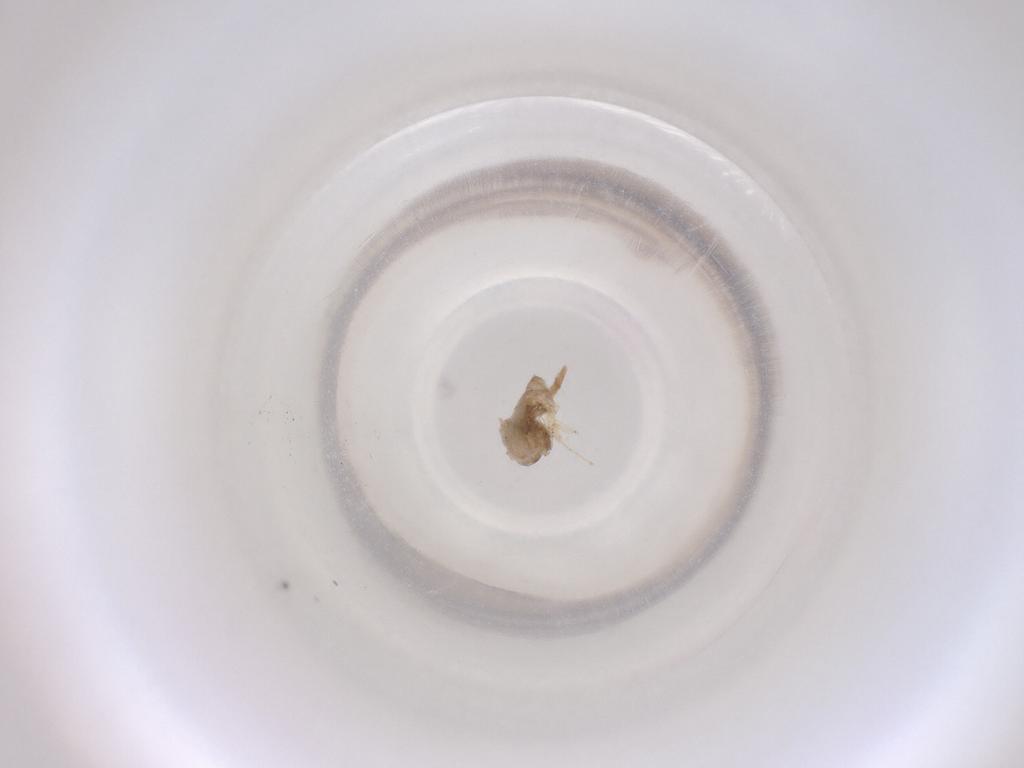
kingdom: Animalia
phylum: Arthropoda
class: Insecta
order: Diptera
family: Cecidomyiidae
